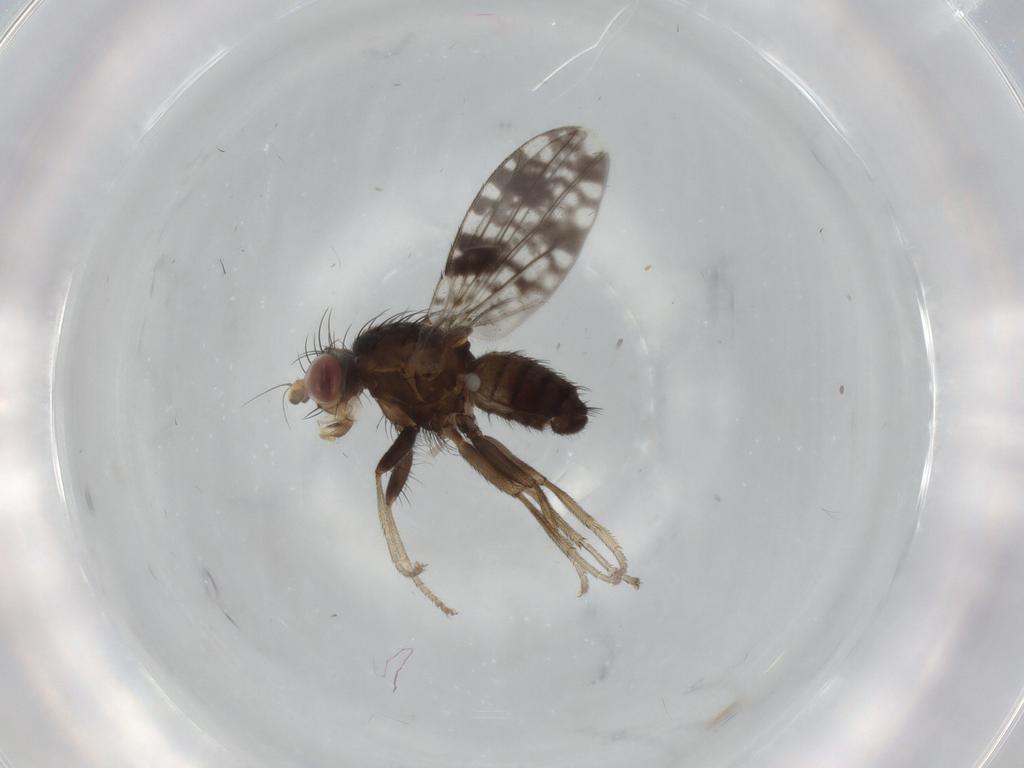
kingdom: Animalia
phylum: Arthropoda
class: Insecta
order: Diptera
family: Tephritidae
